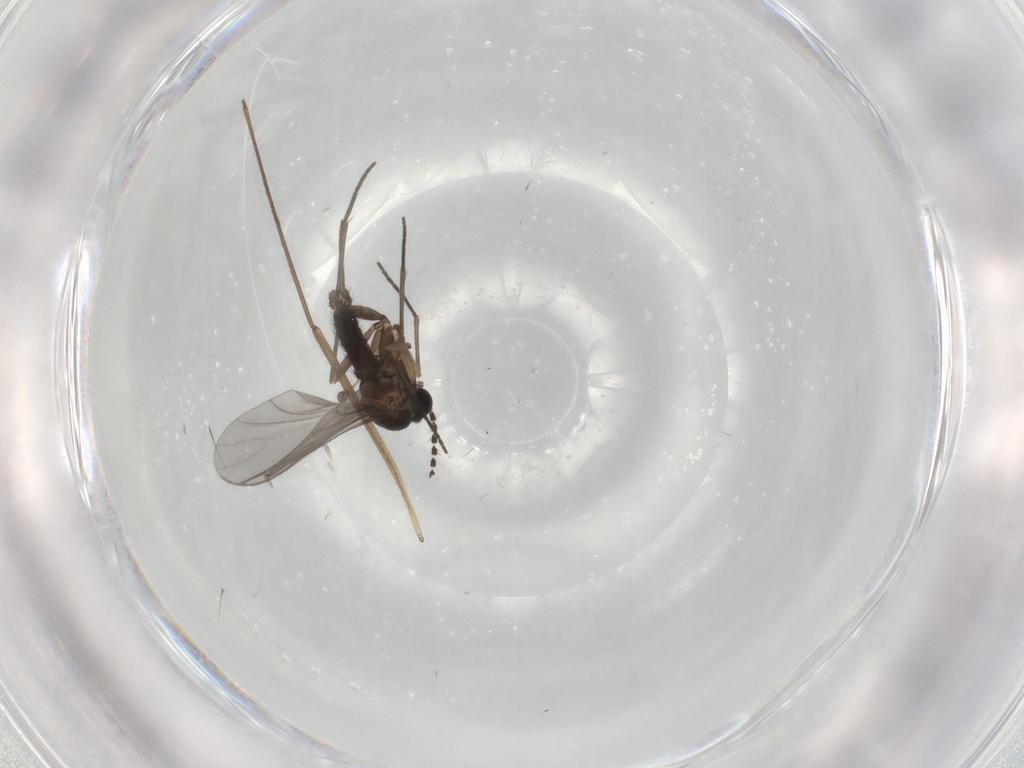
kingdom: Animalia
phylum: Arthropoda
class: Insecta
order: Diptera
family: Sciaridae
